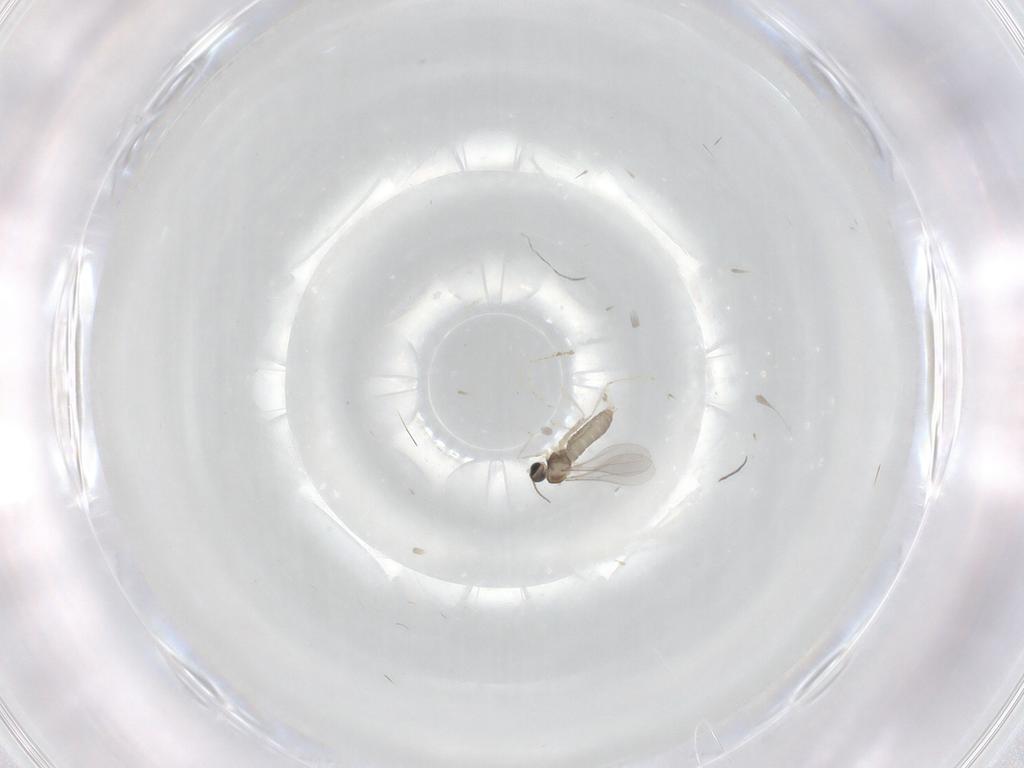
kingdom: Animalia
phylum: Arthropoda
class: Insecta
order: Diptera
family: Cecidomyiidae
